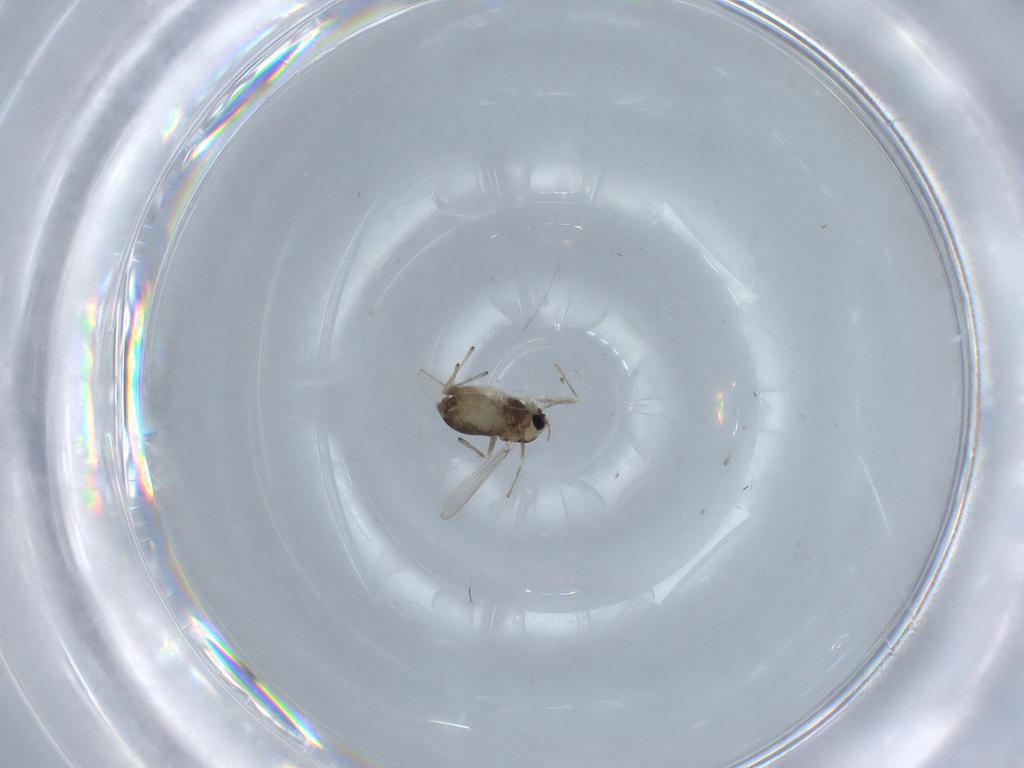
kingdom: Animalia
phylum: Arthropoda
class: Insecta
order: Diptera
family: Chironomidae
